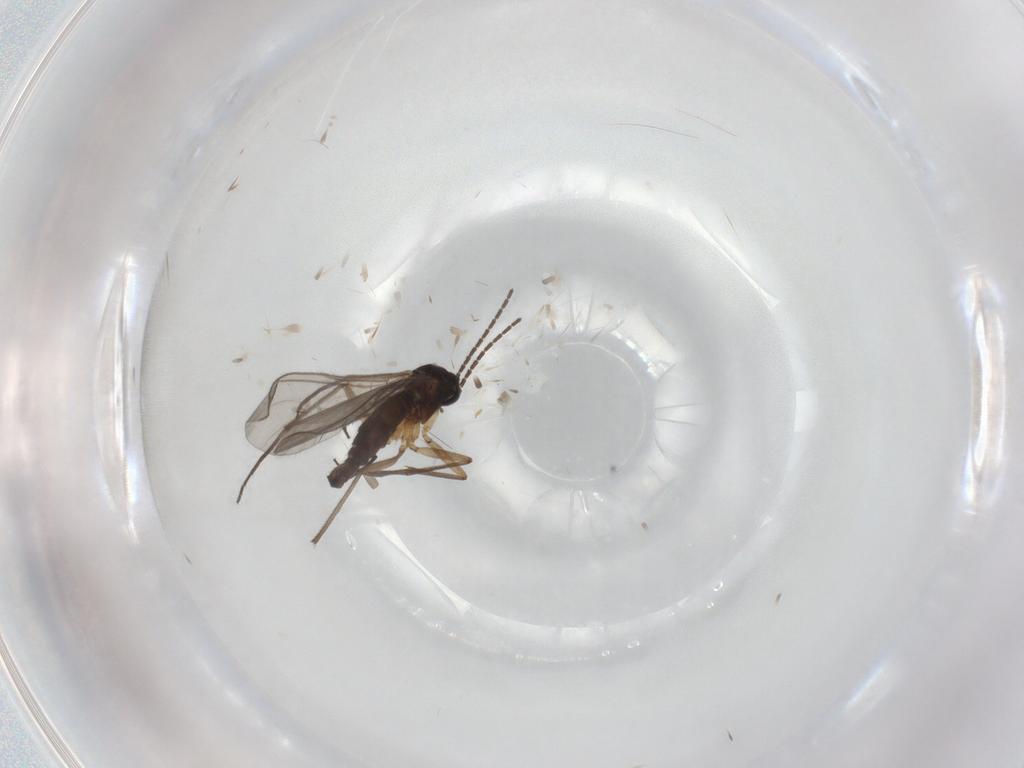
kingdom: Animalia
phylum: Arthropoda
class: Insecta
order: Diptera
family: Sciaridae
